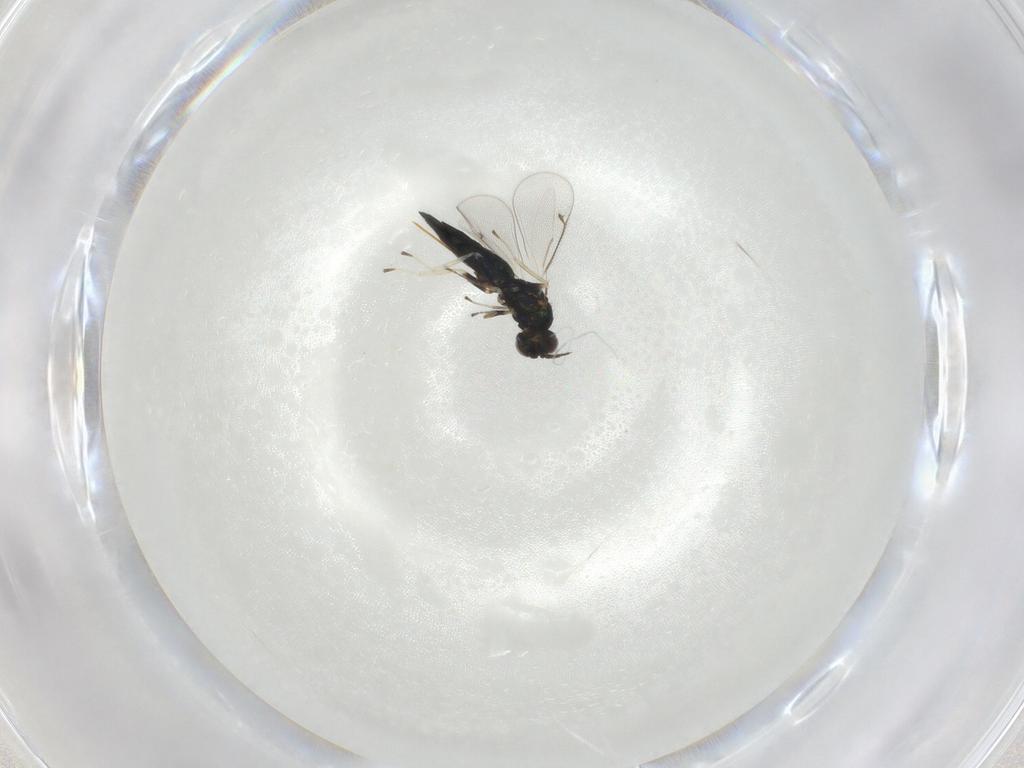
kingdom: Animalia
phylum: Arthropoda
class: Insecta
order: Hymenoptera
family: Eulophidae
